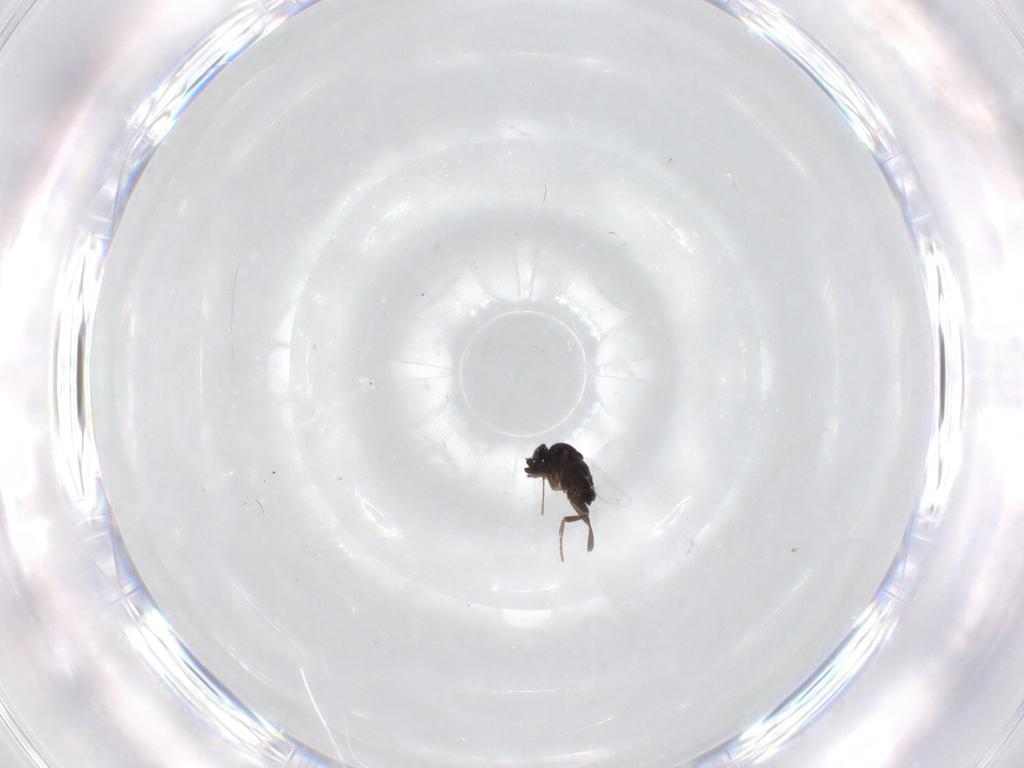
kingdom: Animalia
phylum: Arthropoda
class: Insecta
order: Diptera
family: Phoridae
